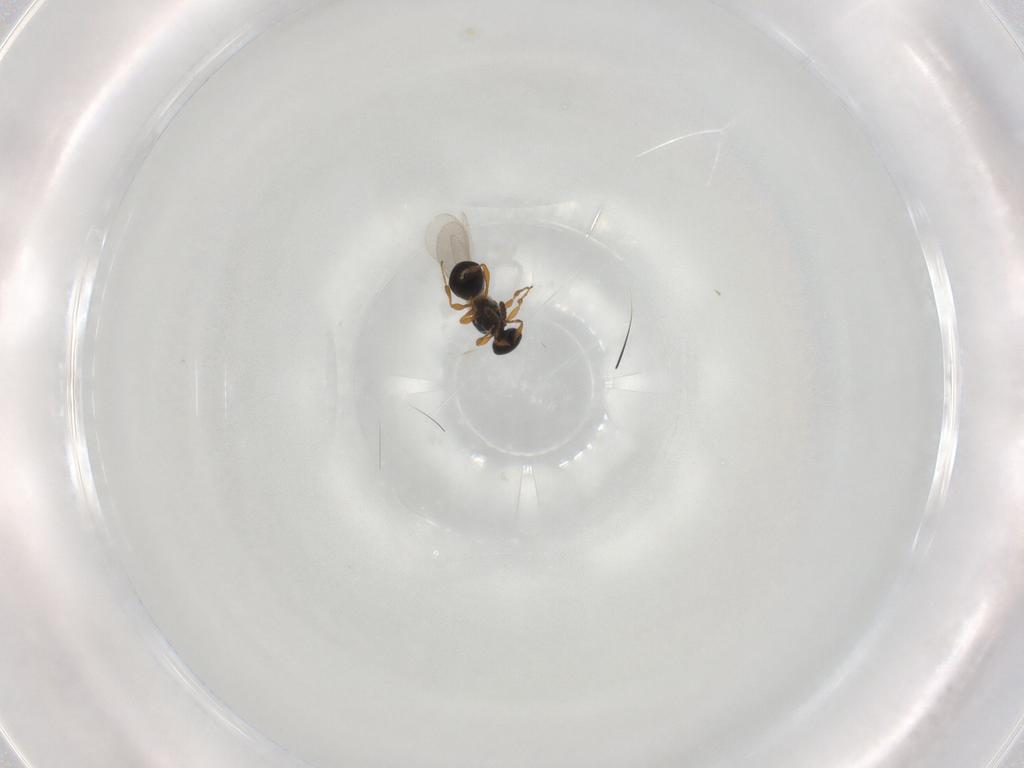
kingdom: Animalia
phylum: Arthropoda
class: Insecta
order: Hymenoptera
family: Platygastridae
